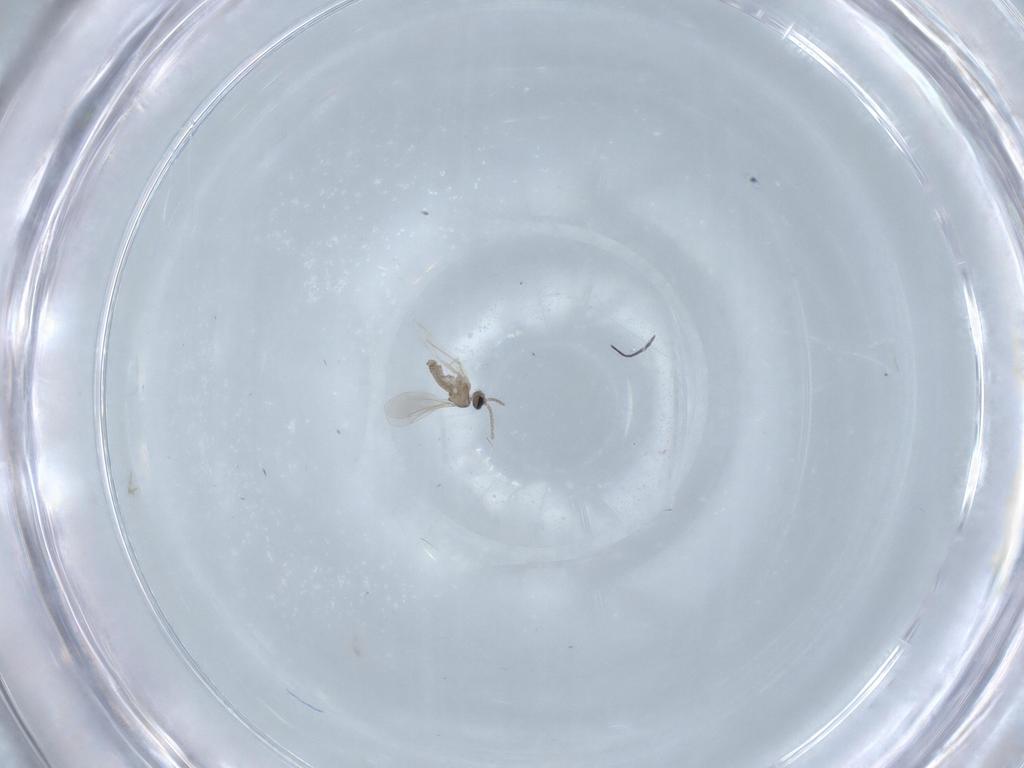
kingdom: Animalia
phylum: Arthropoda
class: Insecta
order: Diptera
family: Cecidomyiidae
